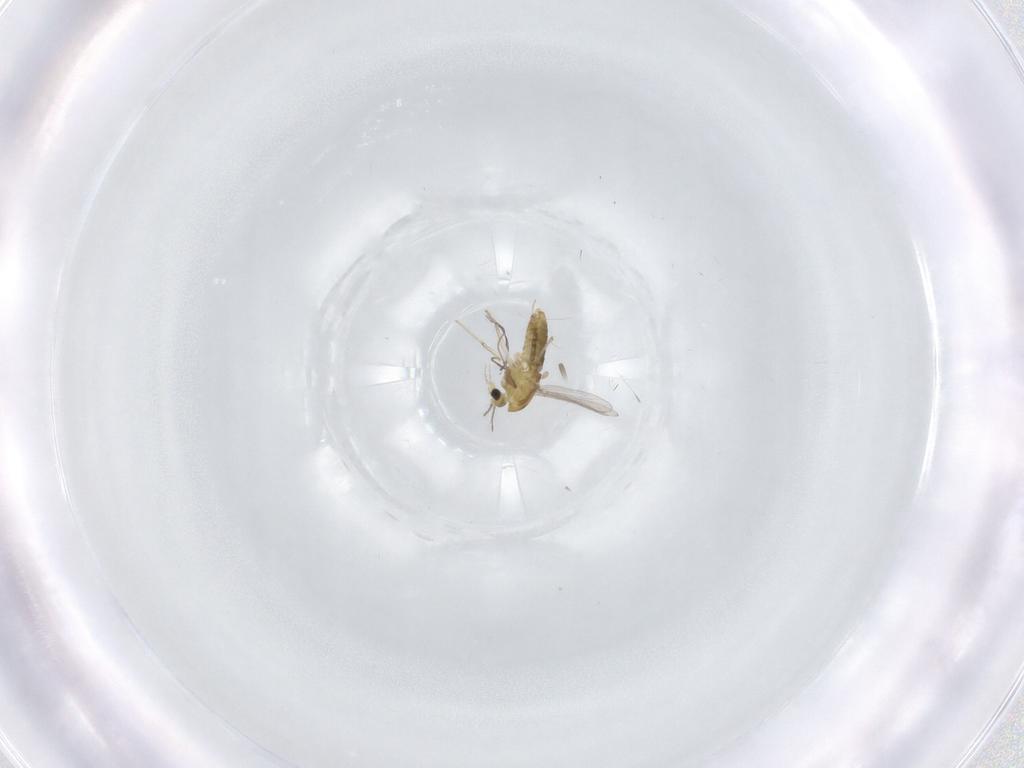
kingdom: Animalia
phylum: Arthropoda
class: Insecta
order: Diptera
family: Chironomidae
